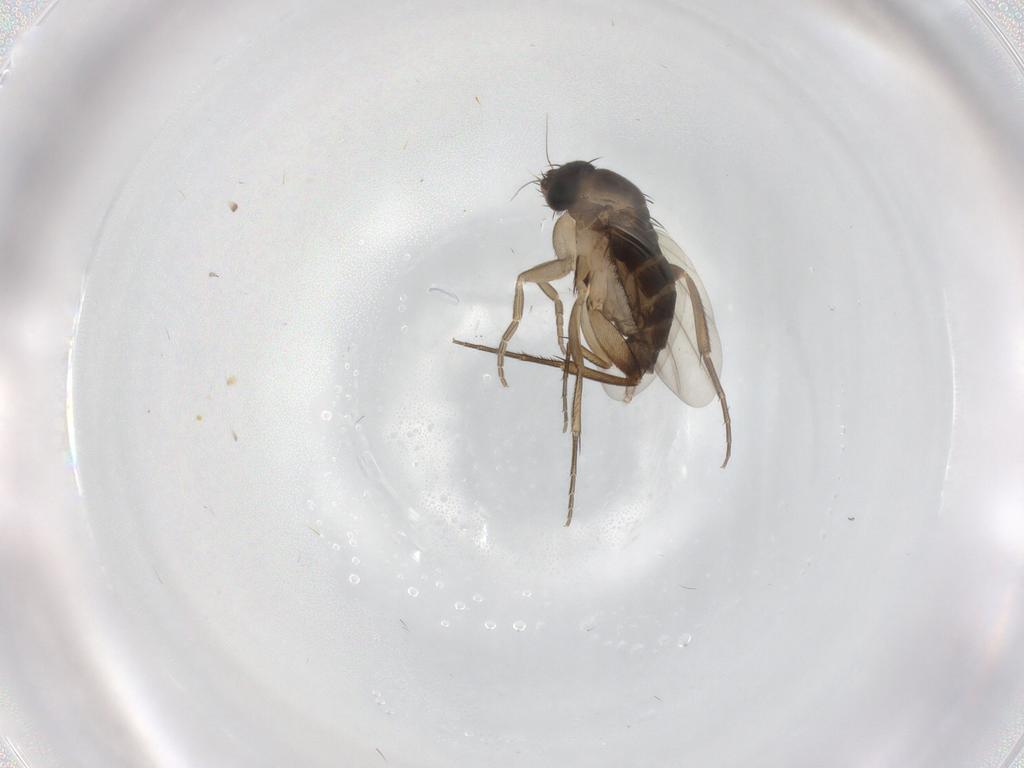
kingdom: Animalia
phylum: Arthropoda
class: Insecta
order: Diptera
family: Phoridae
